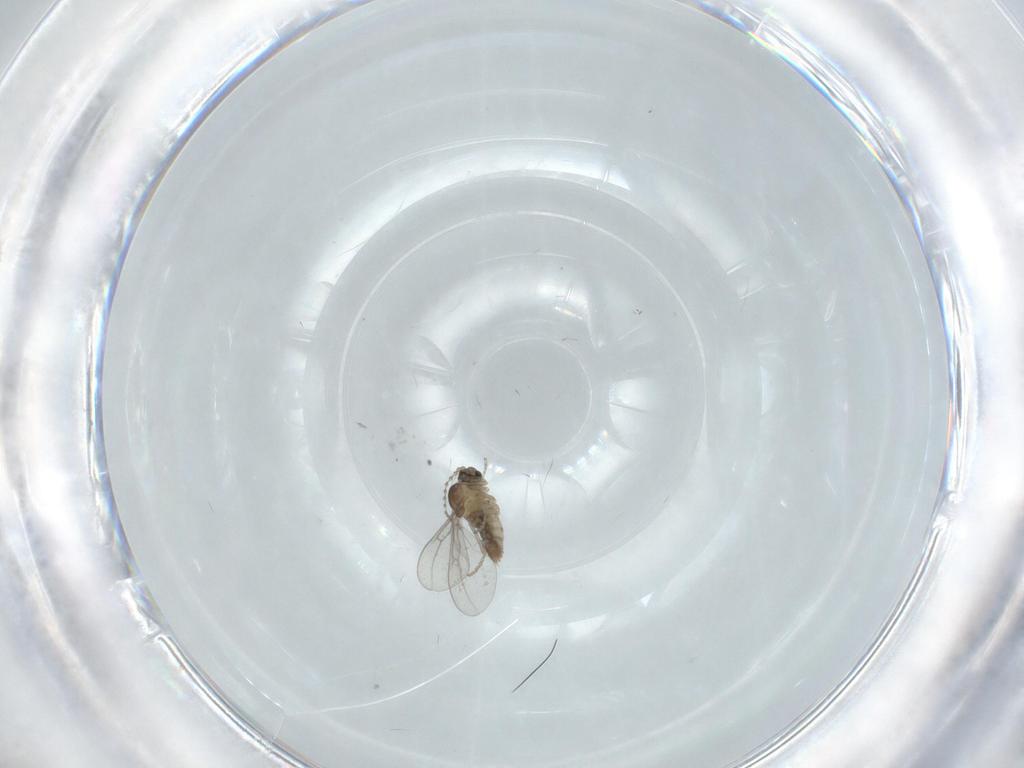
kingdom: Animalia
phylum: Arthropoda
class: Insecta
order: Diptera
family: Cecidomyiidae
